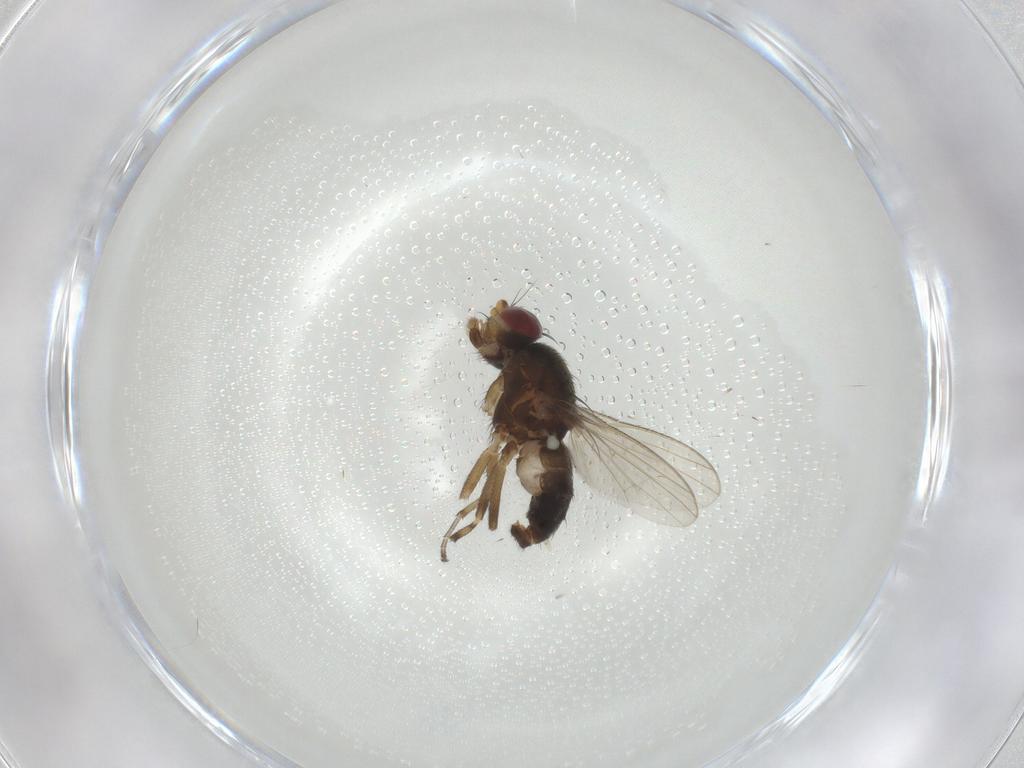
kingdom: Animalia
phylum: Arthropoda
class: Insecta
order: Diptera
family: Heleomyzidae
